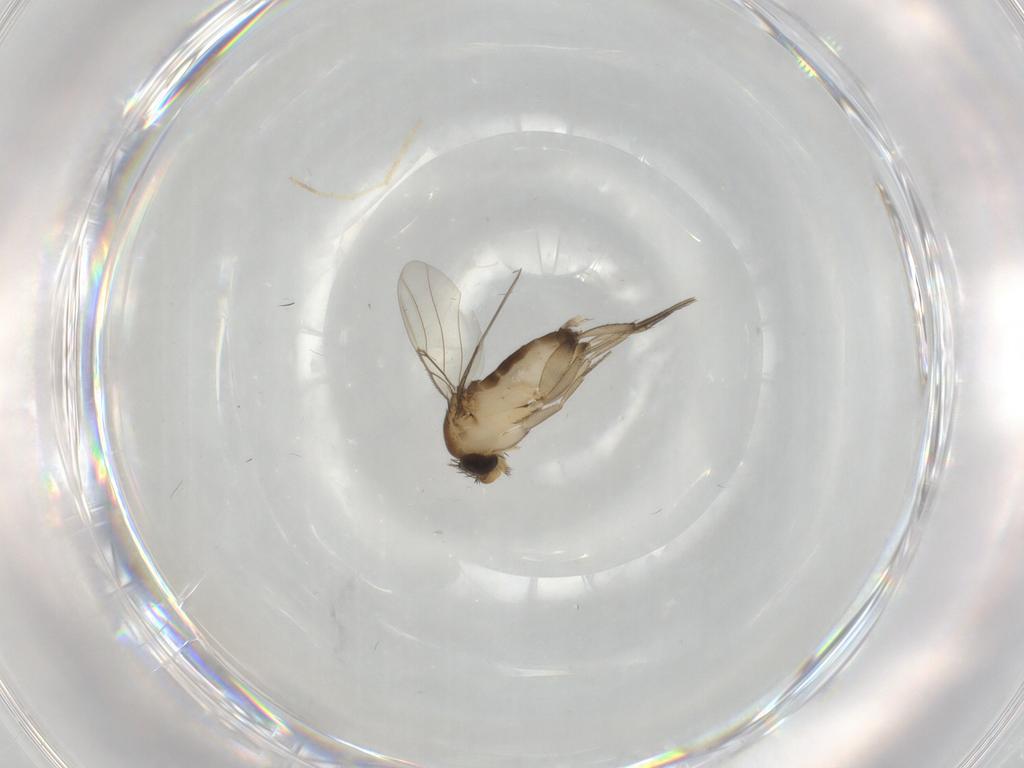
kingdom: Animalia
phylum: Arthropoda
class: Insecta
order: Diptera
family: Phoridae
